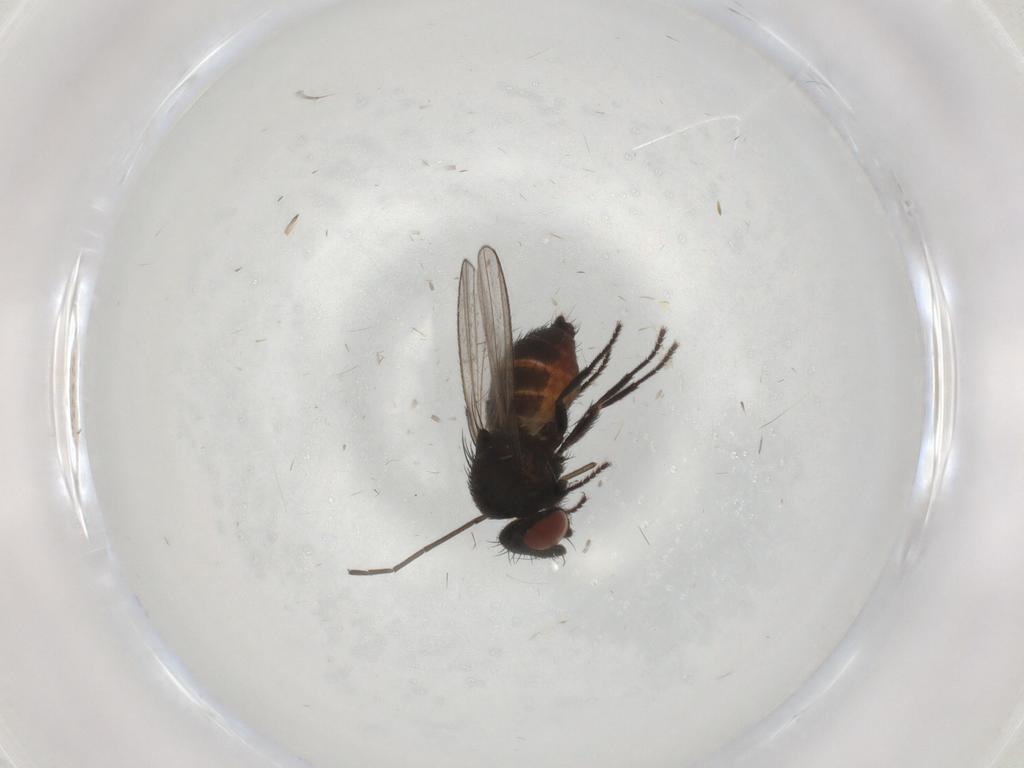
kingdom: Animalia
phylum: Arthropoda
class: Insecta
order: Diptera
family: Sciaridae
